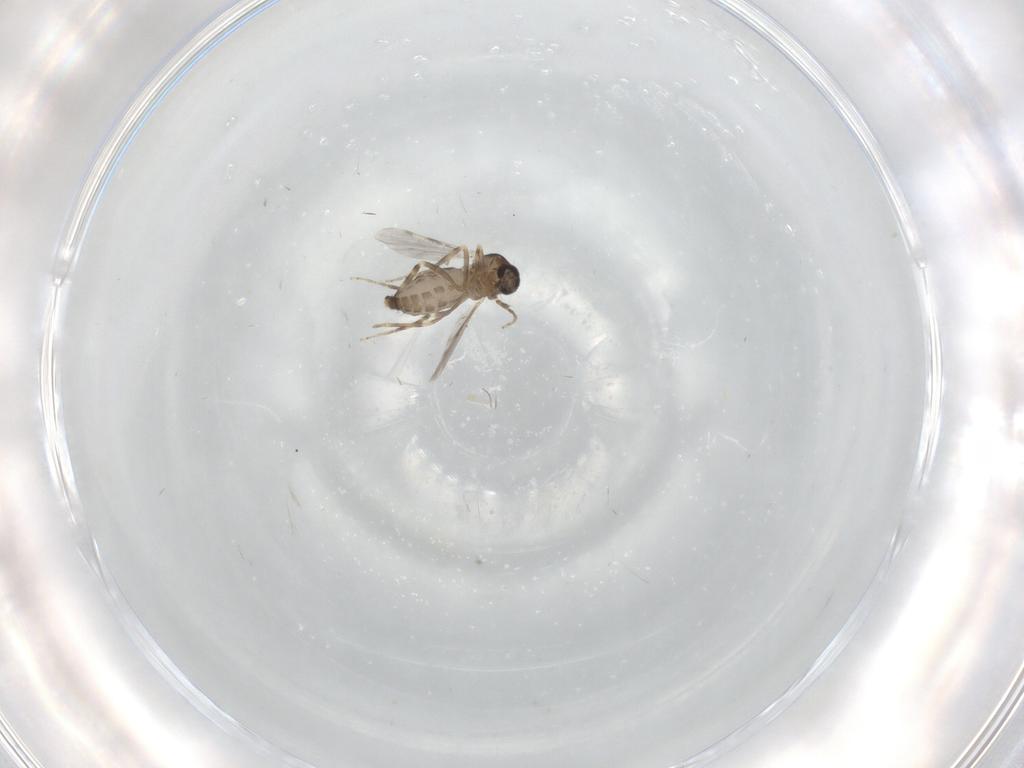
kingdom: Animalia
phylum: Arthropoda
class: Insecta
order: Diptera
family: Ceratopogonidae
